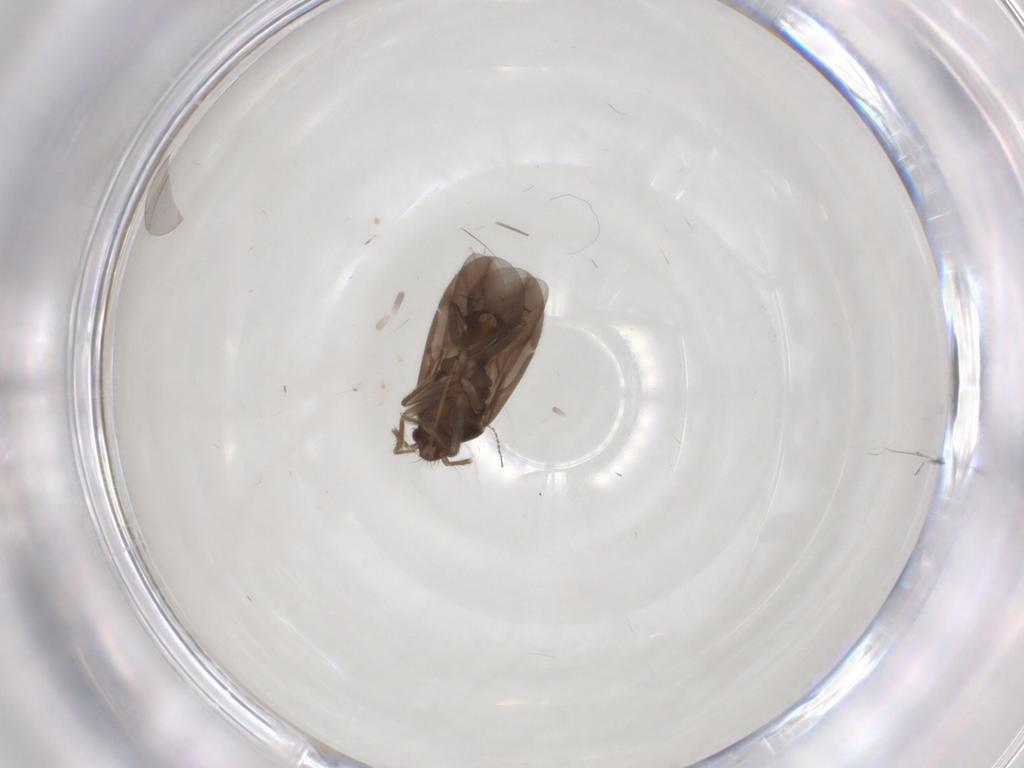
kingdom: Animalia
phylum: Arthropoda
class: Insecta
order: Hemiptera
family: Ceratocombidae
